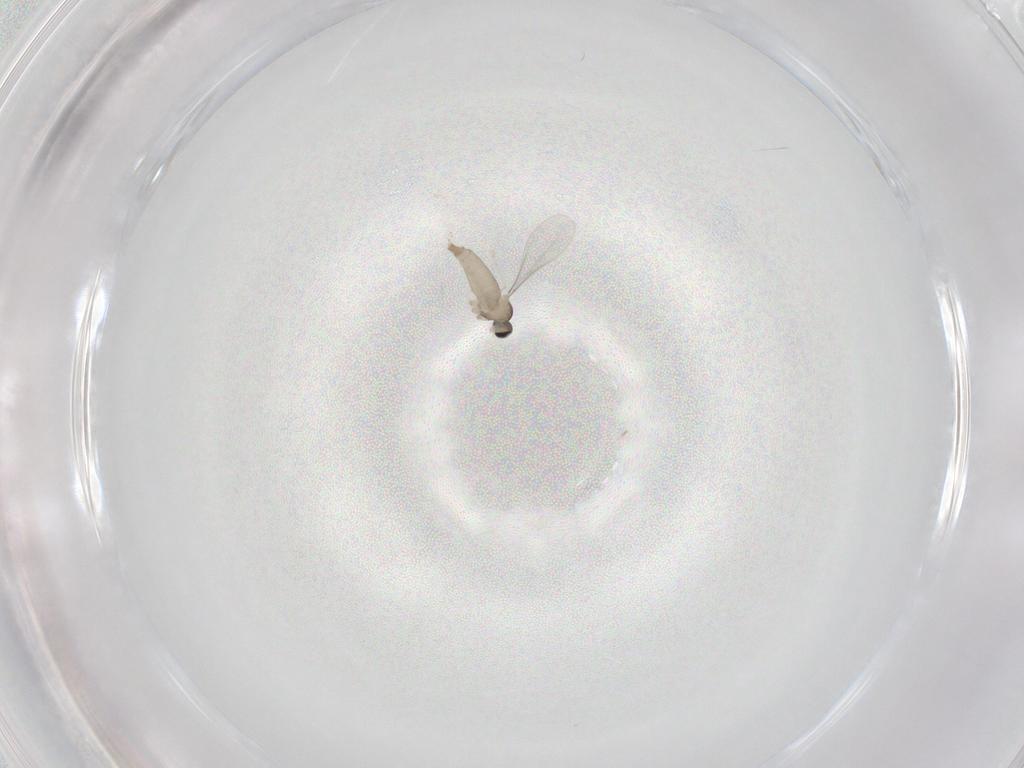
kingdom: Animalia
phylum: Arthropoda
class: Insecta
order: Diptera
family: Cecidomyiidae
